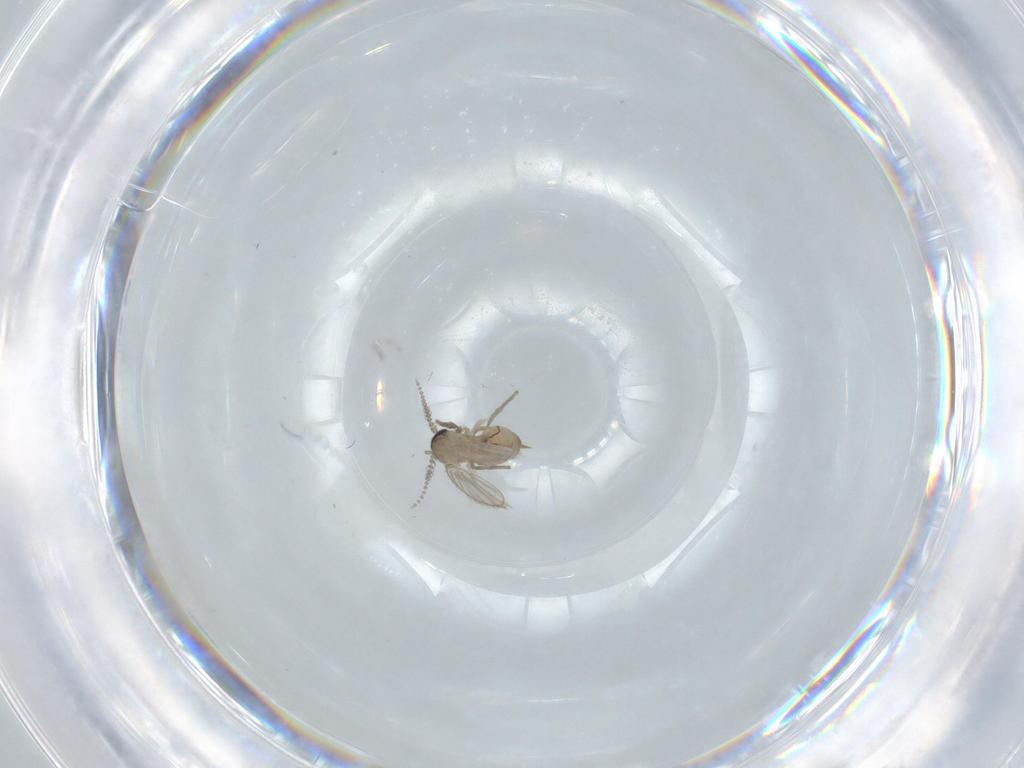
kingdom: Animalia
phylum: Arthropoda
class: Insecta
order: Diptera
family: Psychodidae
